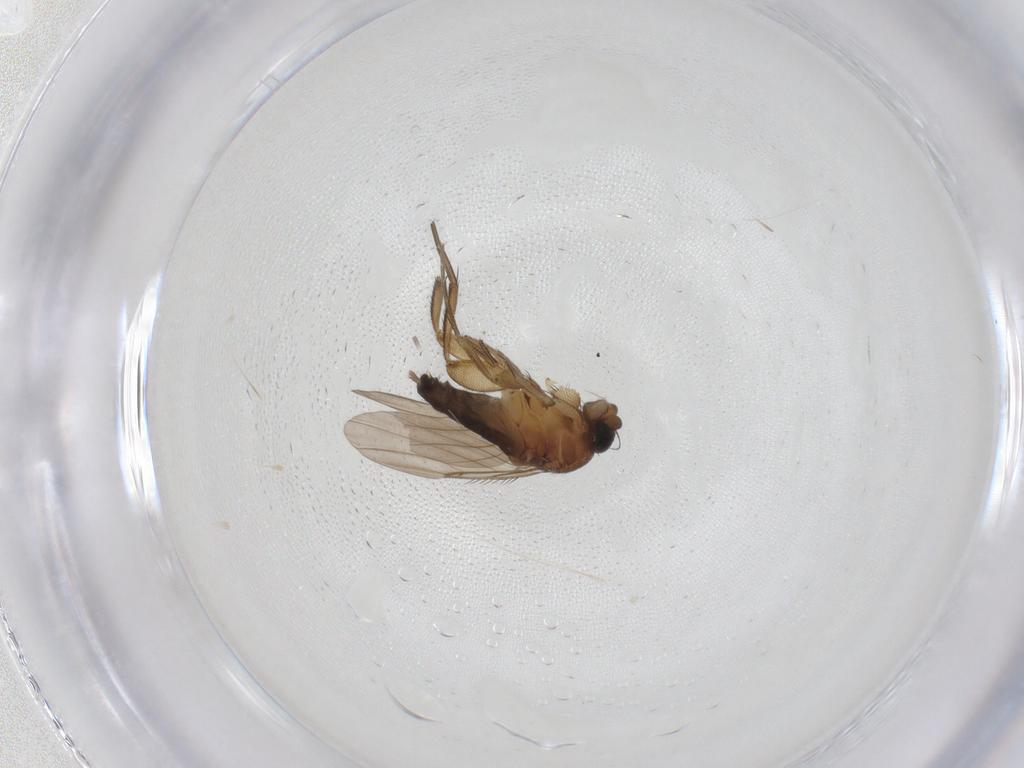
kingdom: Animalia
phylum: Arthropoda
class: Insecta
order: Diptera
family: Phoridae
